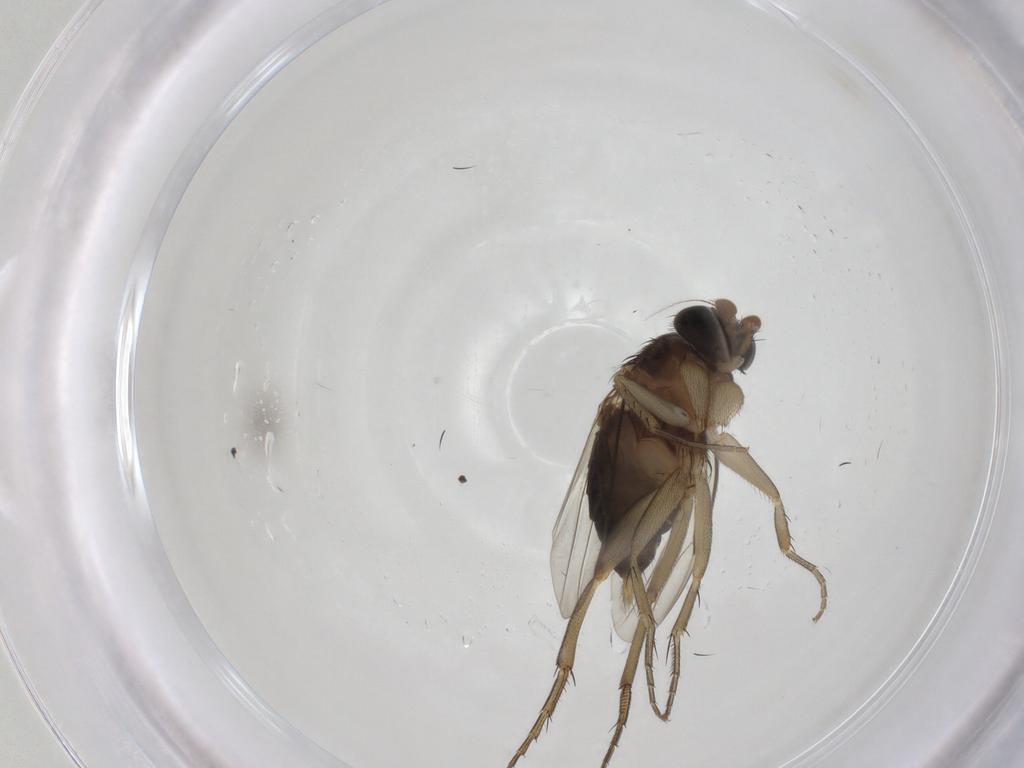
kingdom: Animalia
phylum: Arthropoda
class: Insecta
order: Diptera
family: Phoridae
